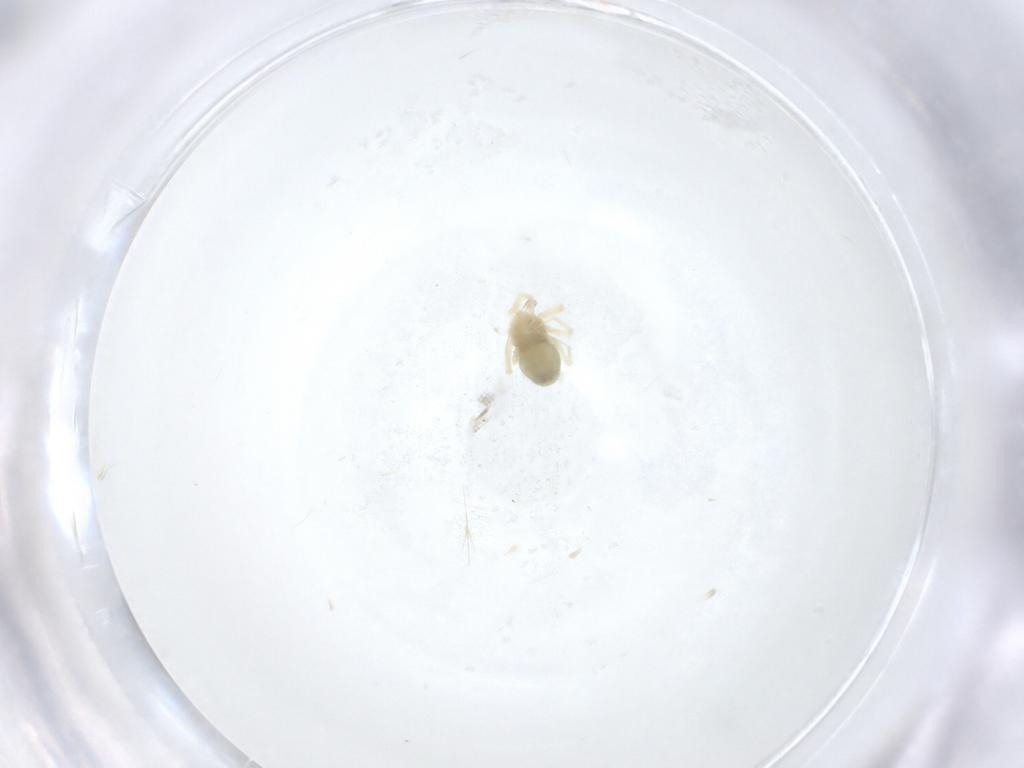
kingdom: Animalia
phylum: Arthropoda
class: Arachnida
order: Trombidiformes
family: Anystidae
